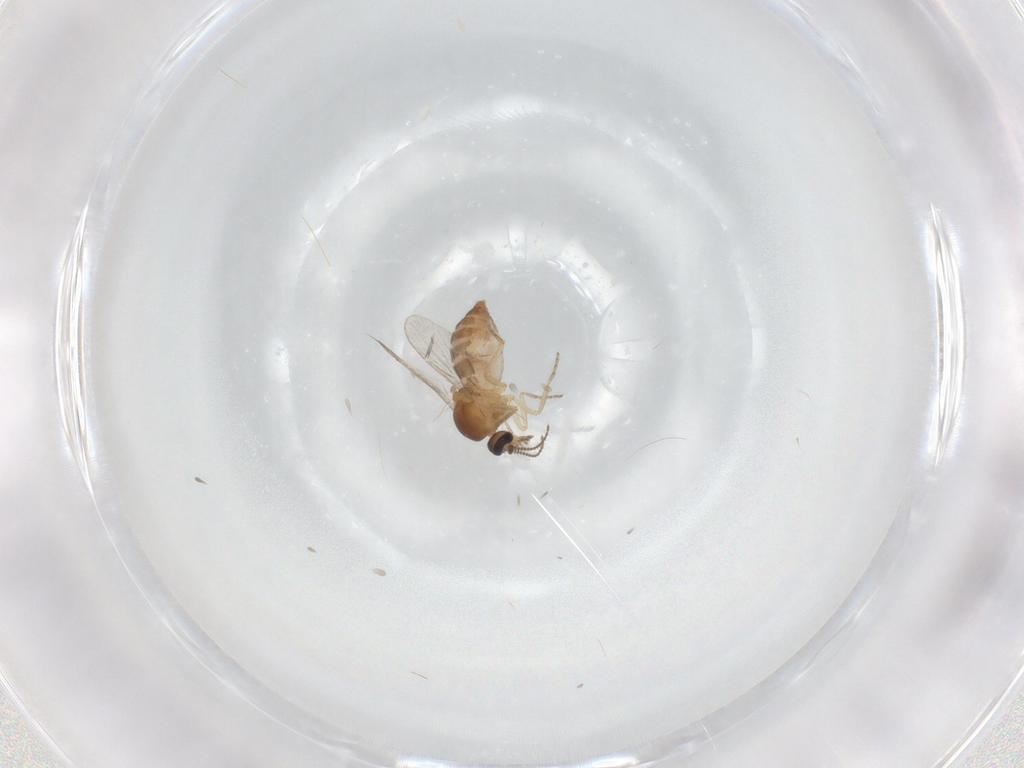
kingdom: Animalia
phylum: Arthropoda
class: Insecta
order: Diptera
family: Ceratopogonidae
